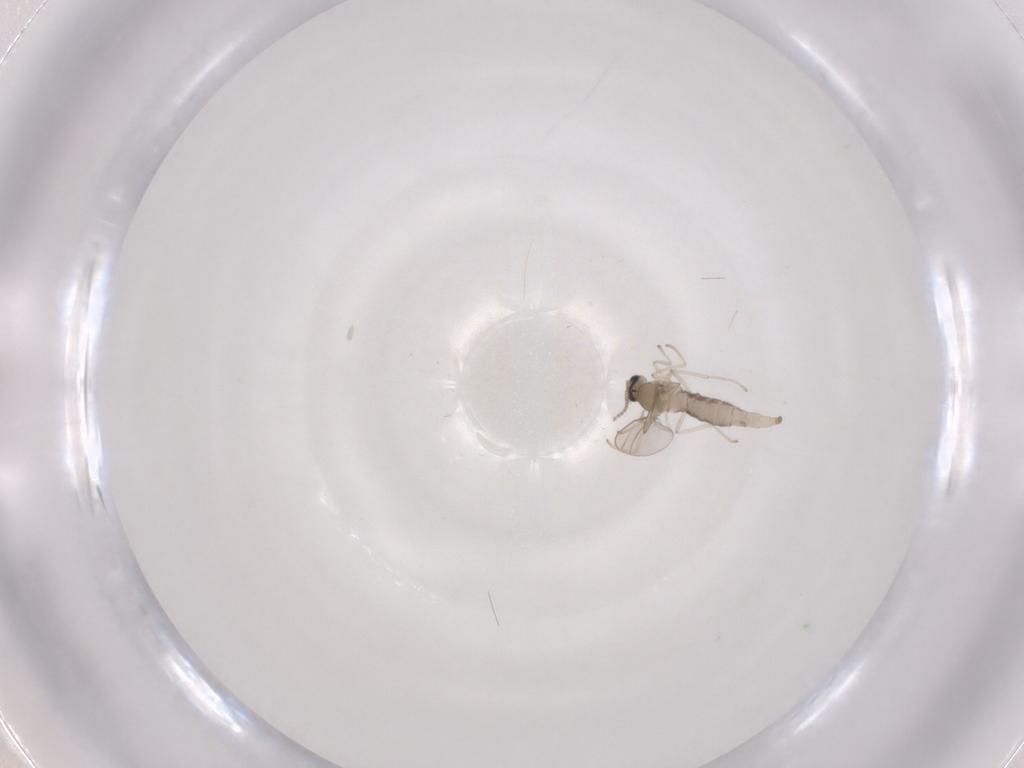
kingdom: Animalia
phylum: Arthropoda
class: Insecta
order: Diptera
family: Cecidomyiidae
